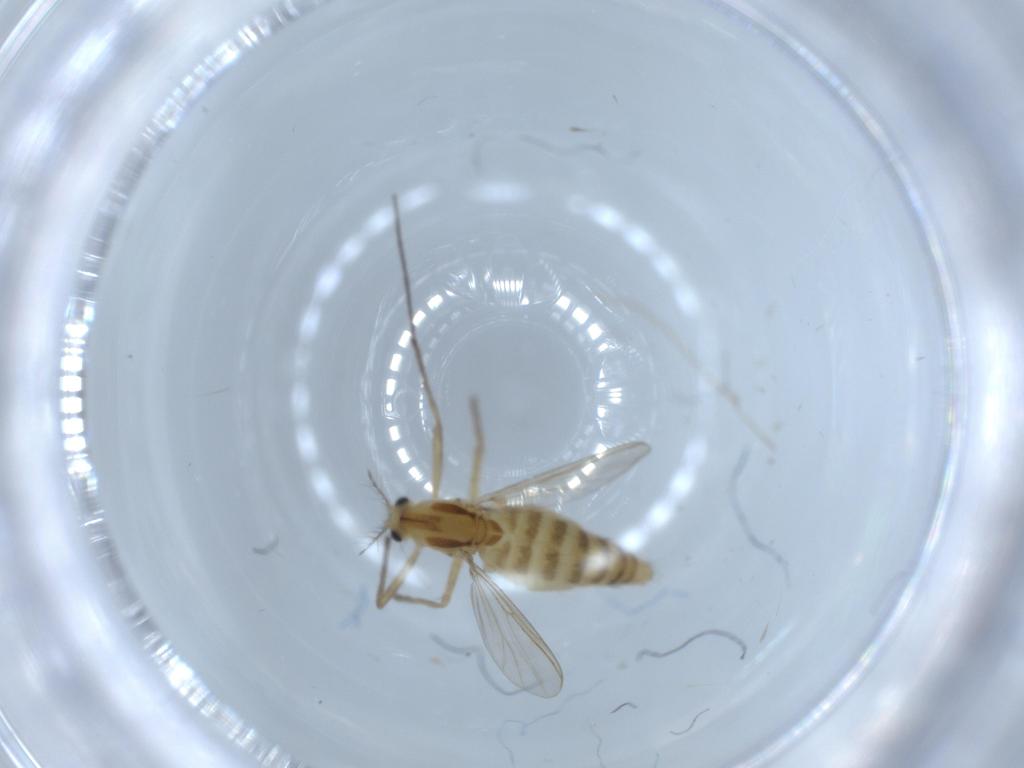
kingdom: Animalia
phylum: Arthropoda
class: Insecta
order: Diptera
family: Chironomidae
